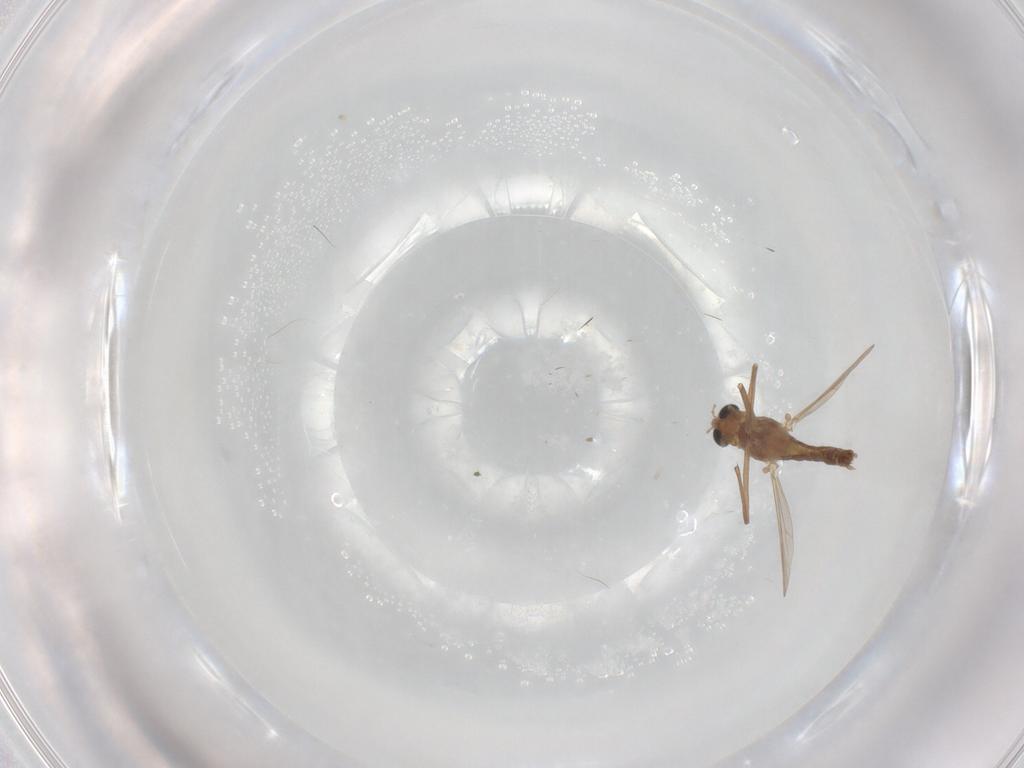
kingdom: Animalia
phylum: Arthropoda
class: Insecta
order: Diptera
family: Chironomidae
